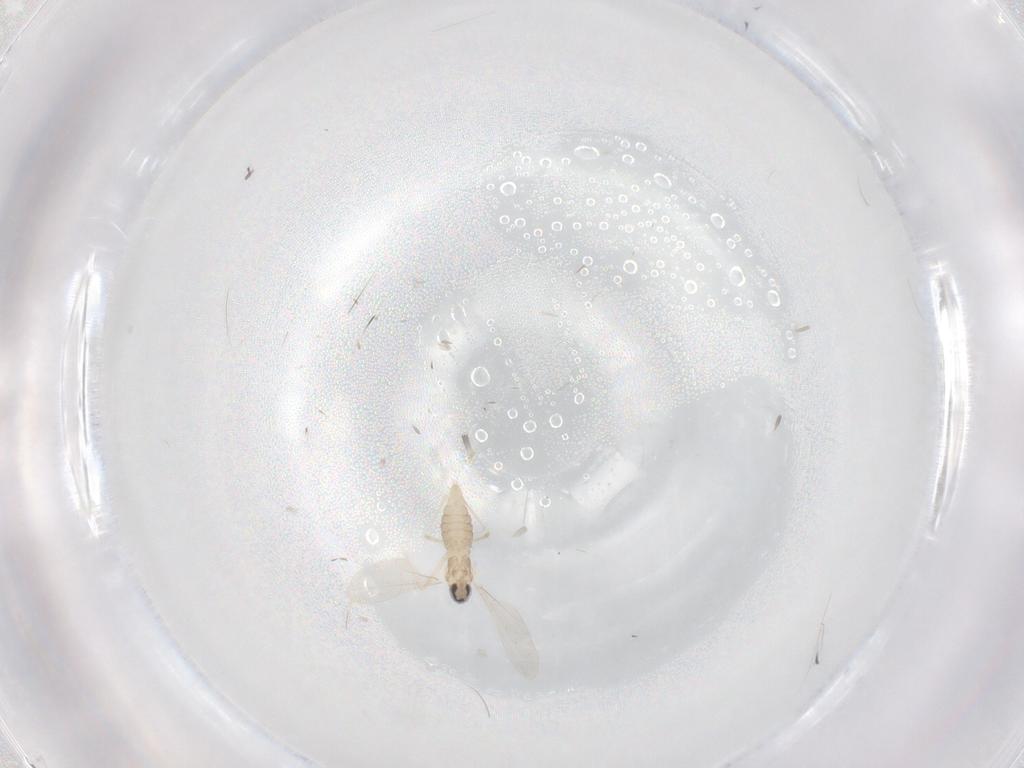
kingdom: Animalia
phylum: Arthropoda
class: Insecta
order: Diptera
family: Cecidomyiidae
